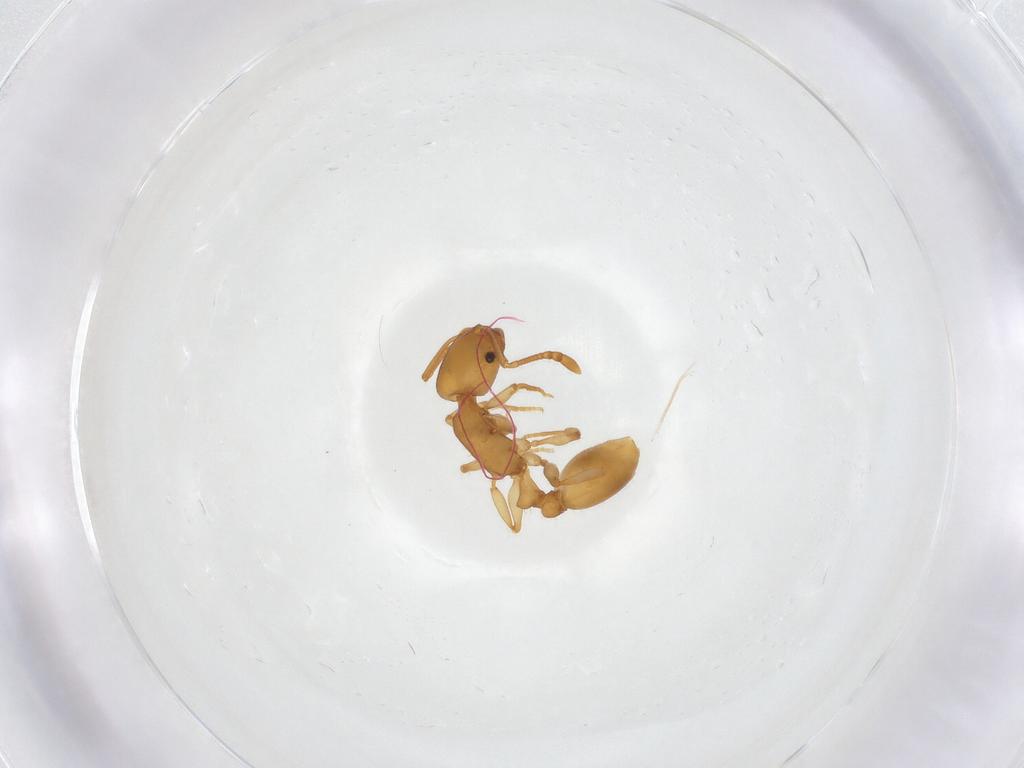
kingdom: Animalia
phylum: Arthropoda
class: Insecta
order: Hymenoptera
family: Formicidae
